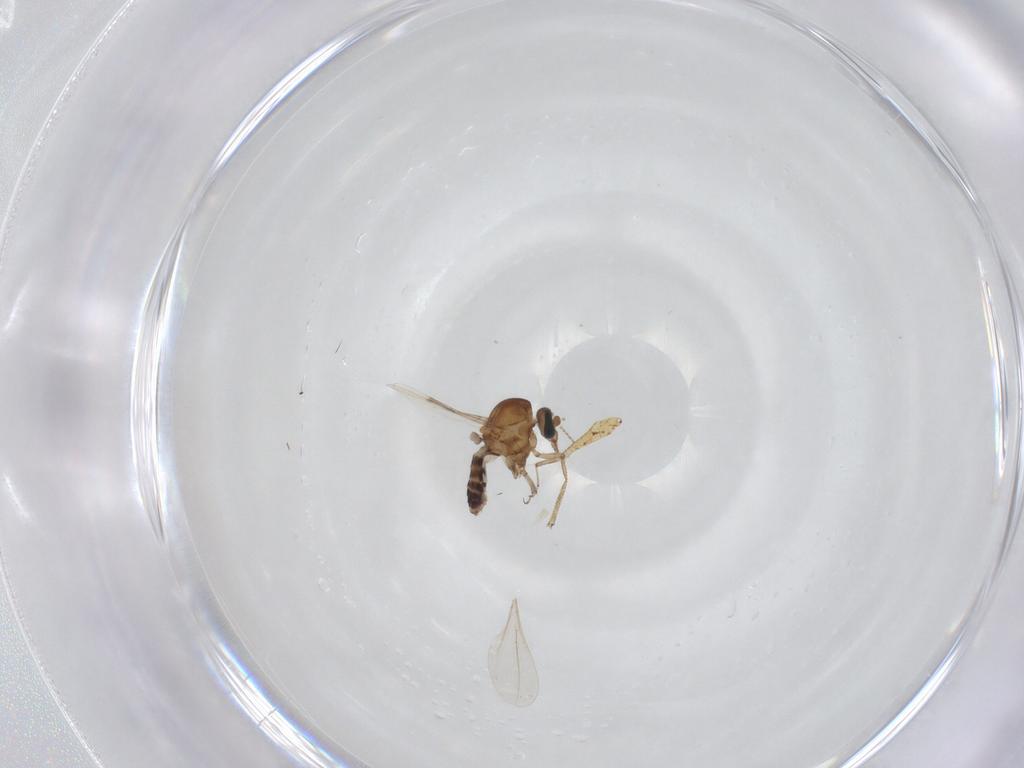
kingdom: Animalia
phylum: Arthropoda
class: Insecta
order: Diptera
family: Ceratopogonidae
